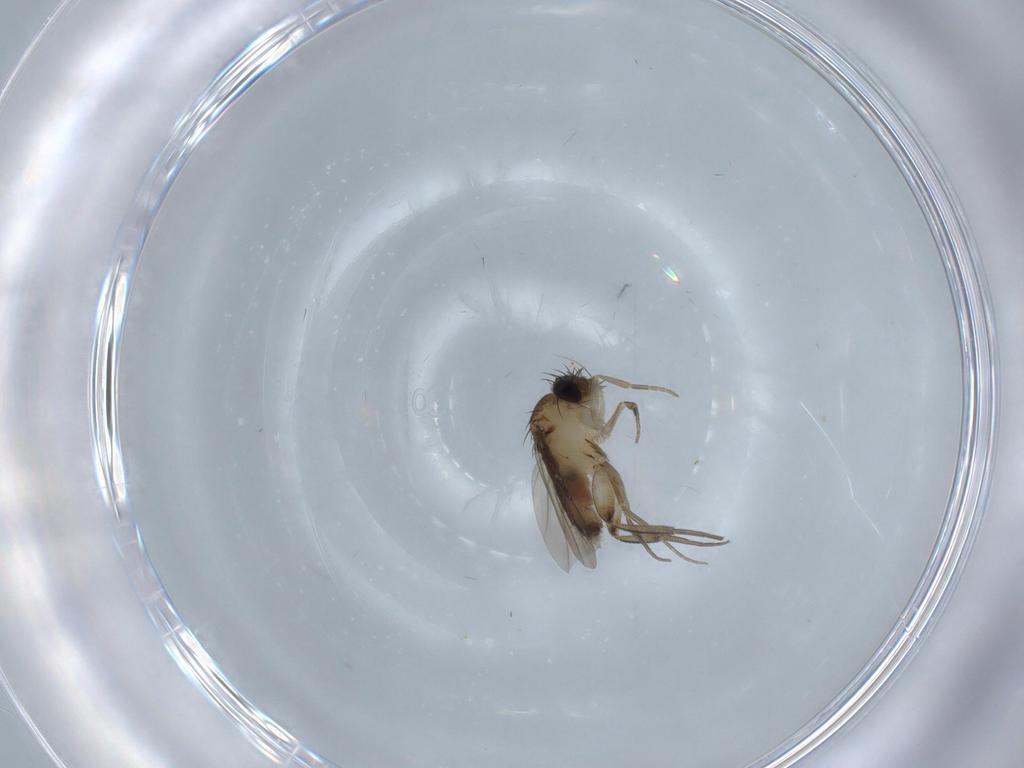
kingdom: Animalia
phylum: Arthropoda
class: Insecta
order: Diptera
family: Phoridae
